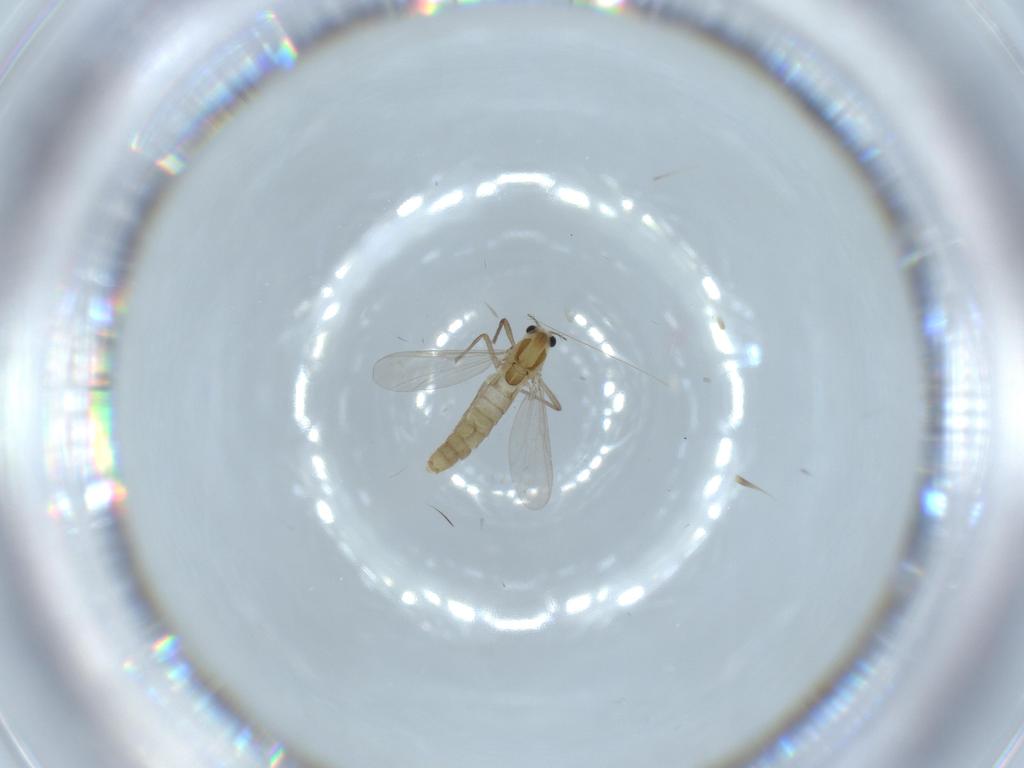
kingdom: Animalia
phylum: Arthropoda
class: Insecta
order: Diptera
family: Chironomidae
